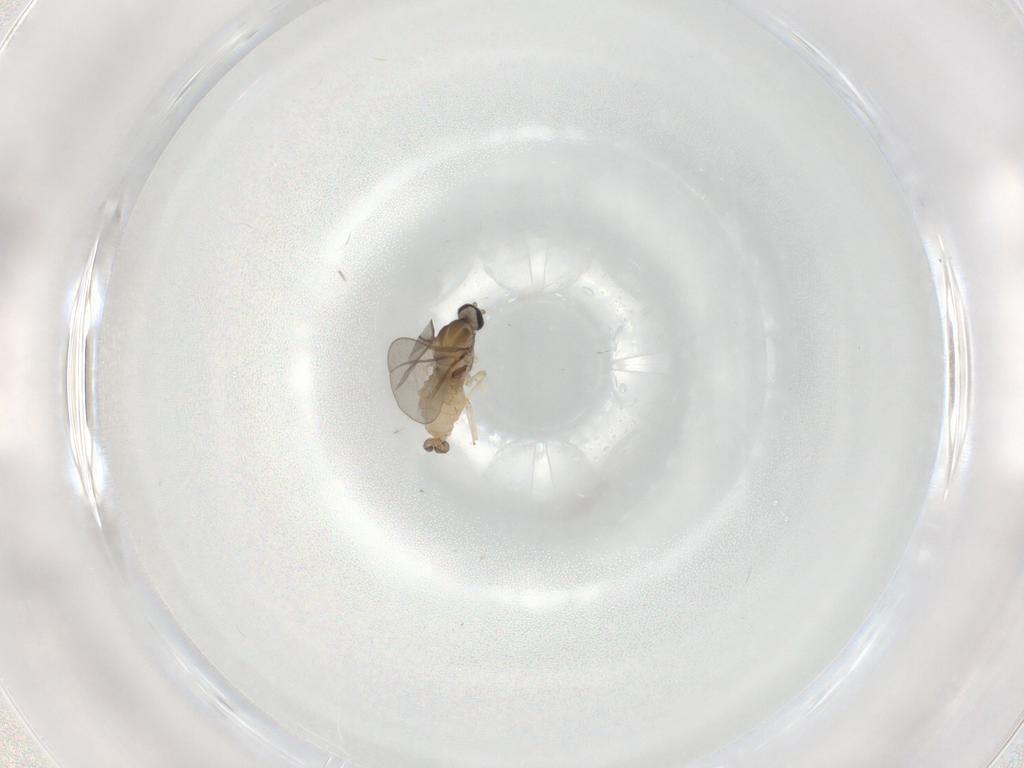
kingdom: Animalia
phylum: Arthropoda
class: Insecta
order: Diptera
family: Cecidomyiidae
